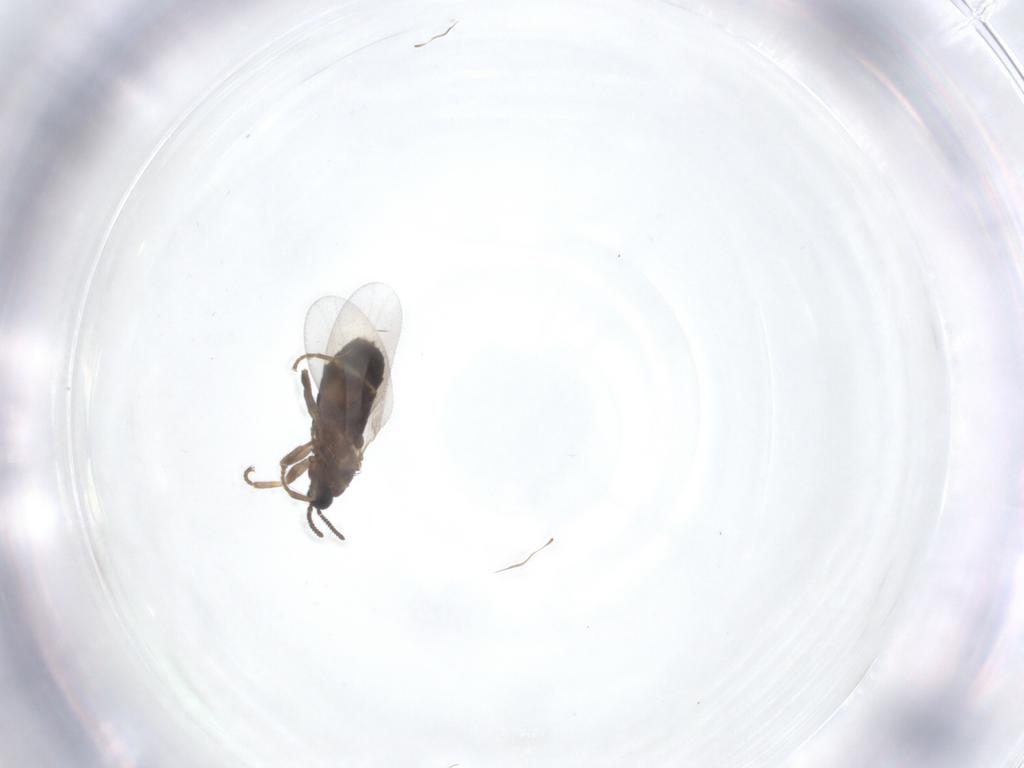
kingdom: Animalia
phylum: Arthropoda
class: Insecta
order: Diptera
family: Scatopsidae
